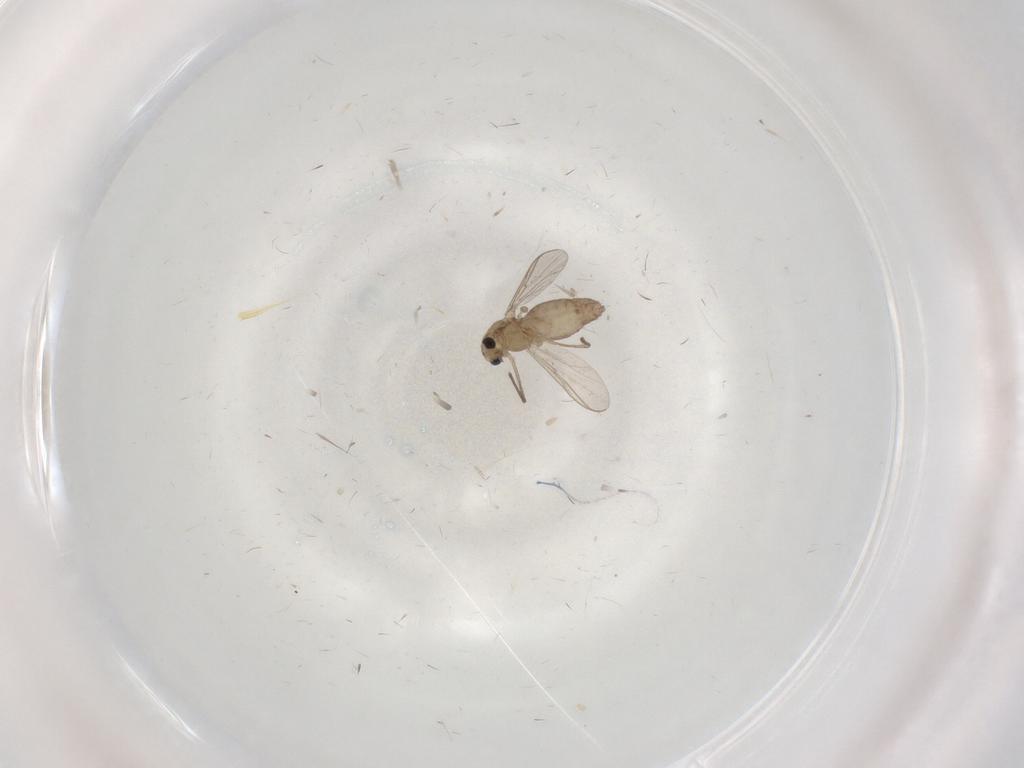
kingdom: Animalia
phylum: Arthropoda
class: Insecta
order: Diptera
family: Chironomidae
